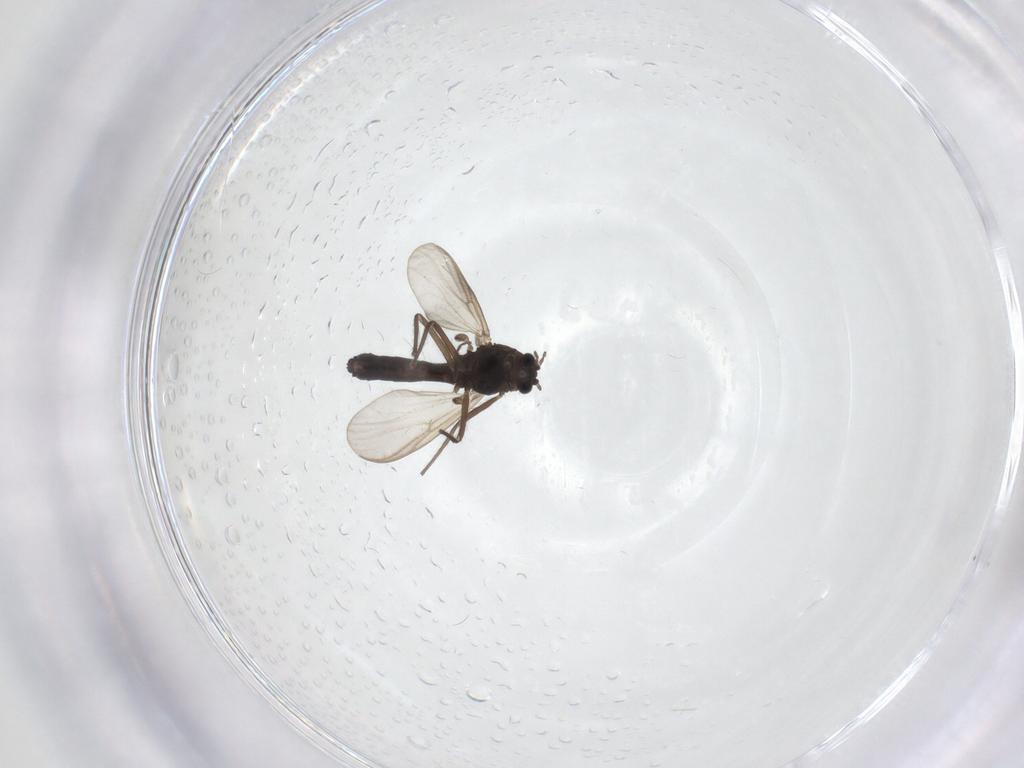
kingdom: Animalia
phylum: Arthropoda
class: Insecta
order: Diptera
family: Chironomidae
